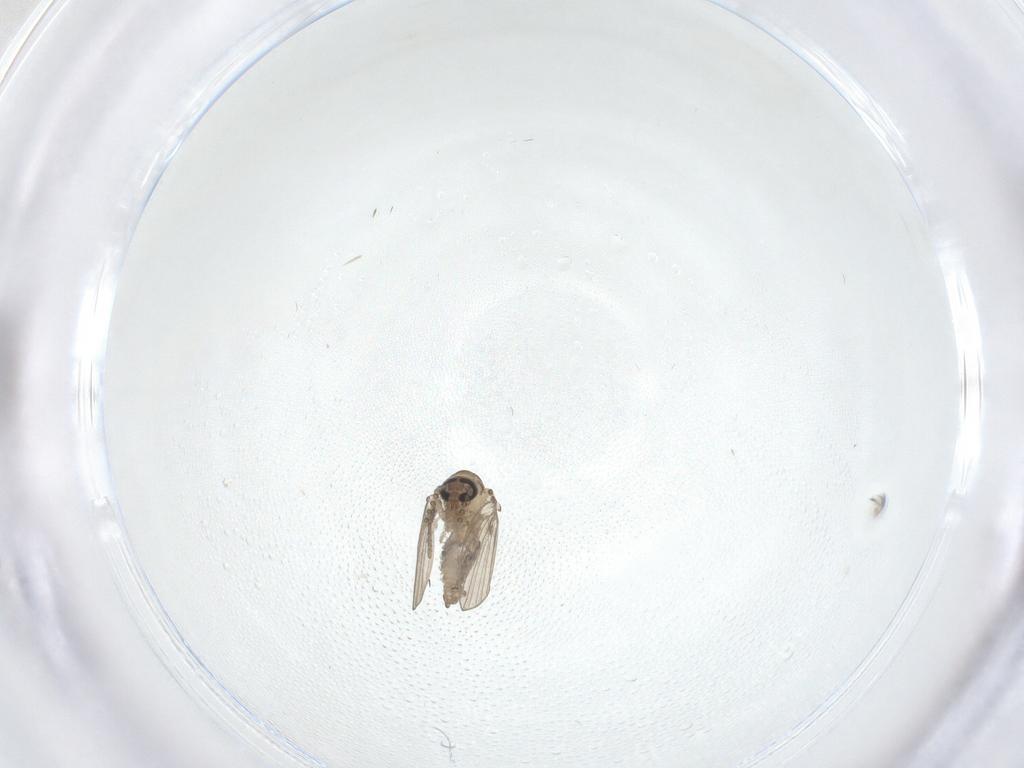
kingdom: Animalia
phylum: Arthropoda
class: Insecta
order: Diptera
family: Psychodidae
